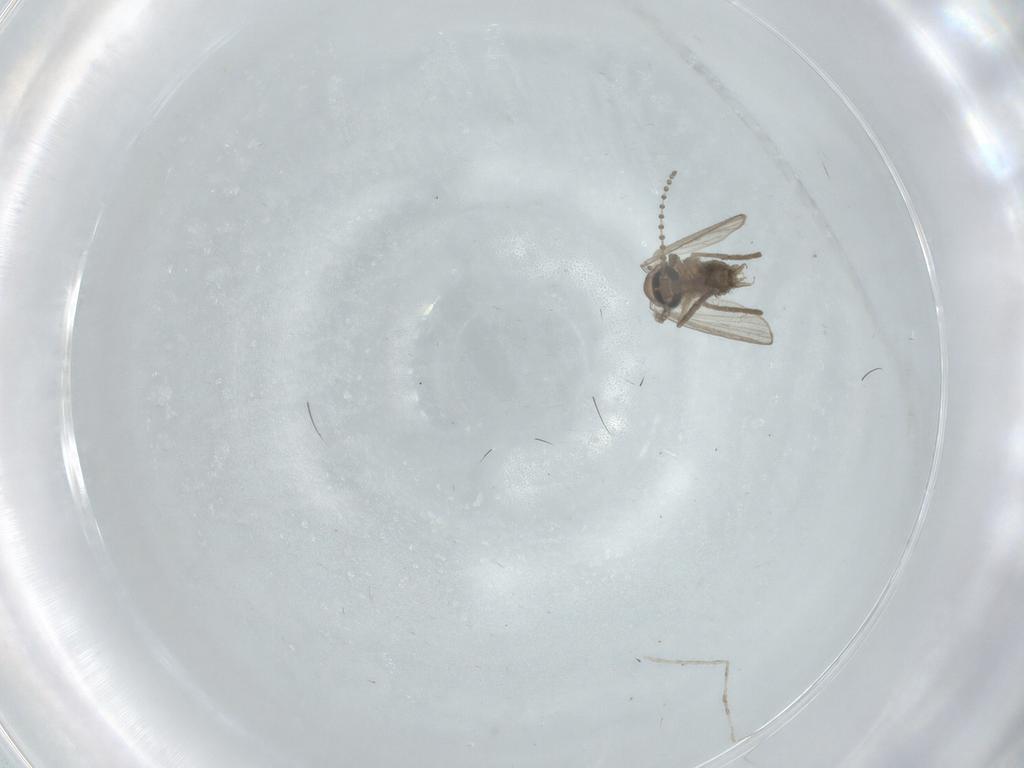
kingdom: Animalia
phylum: Arthropoda
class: Insecta
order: Diptera
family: Psychodidae
